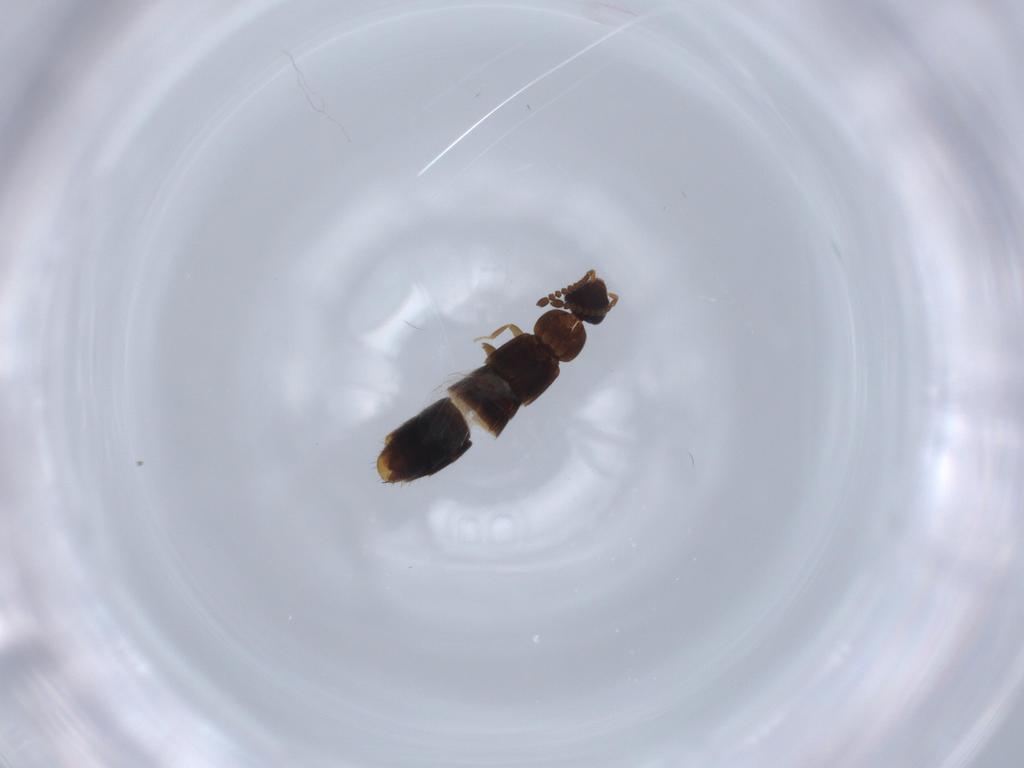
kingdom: Animalia
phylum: Arthropoda
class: Insecta
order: Coleoptera
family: Staphylinidae
